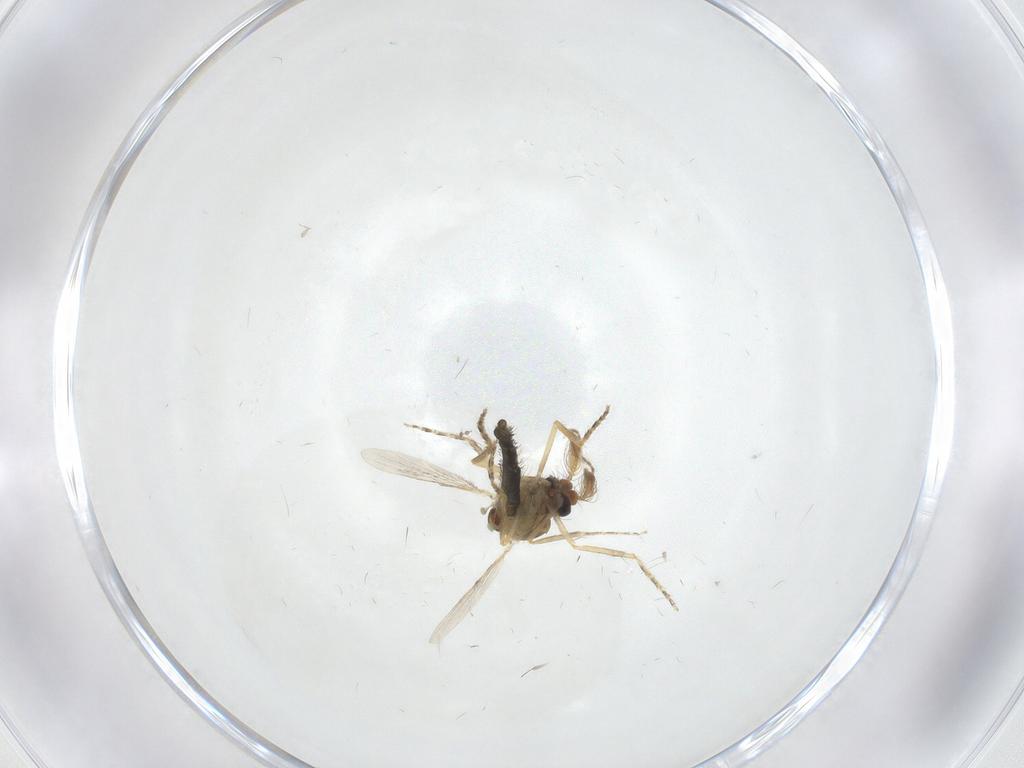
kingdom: Animalia
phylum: Arthropoda
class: Insecta
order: Diptera
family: Ceratopogonidae
